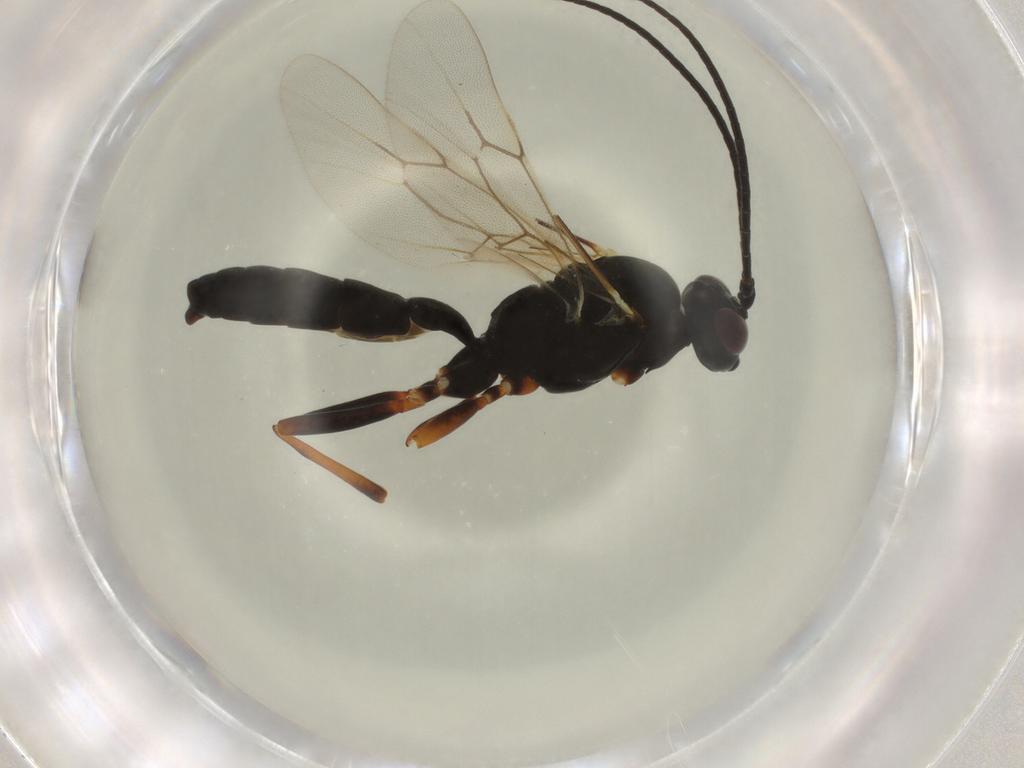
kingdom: Animalia
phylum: Arthropoda
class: Insecta
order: Hymenoptera
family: Ichneumonidae
